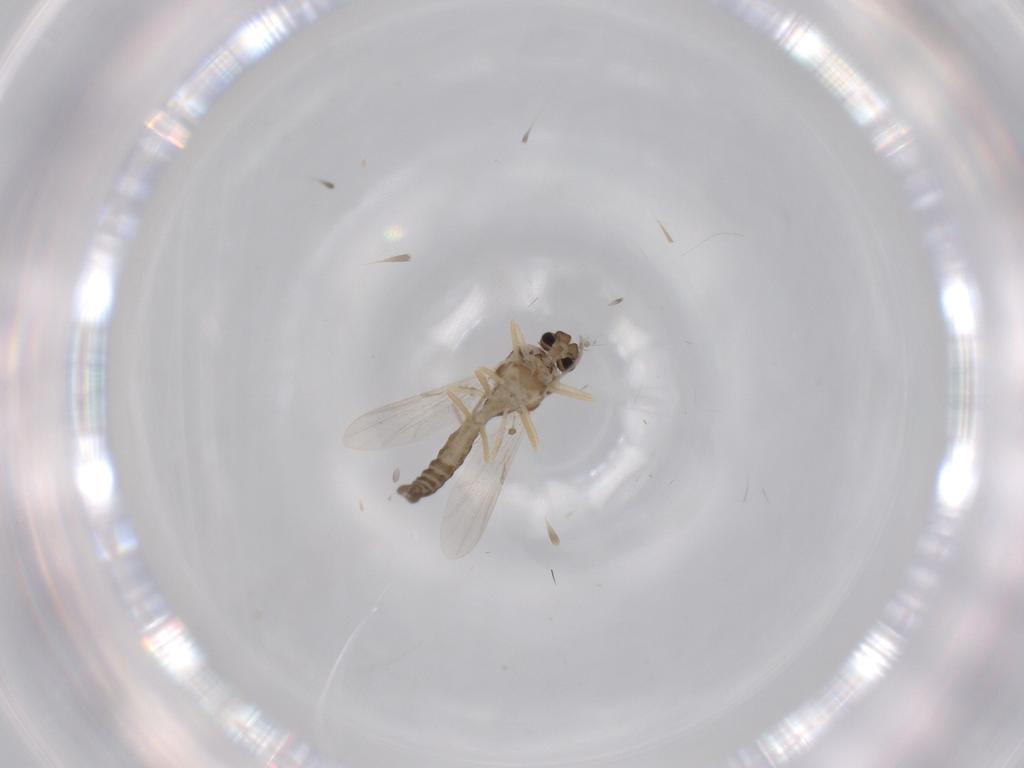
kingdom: Animalia
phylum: Arthropoda
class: Insecta
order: Diptera
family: Ceratopogonidae
